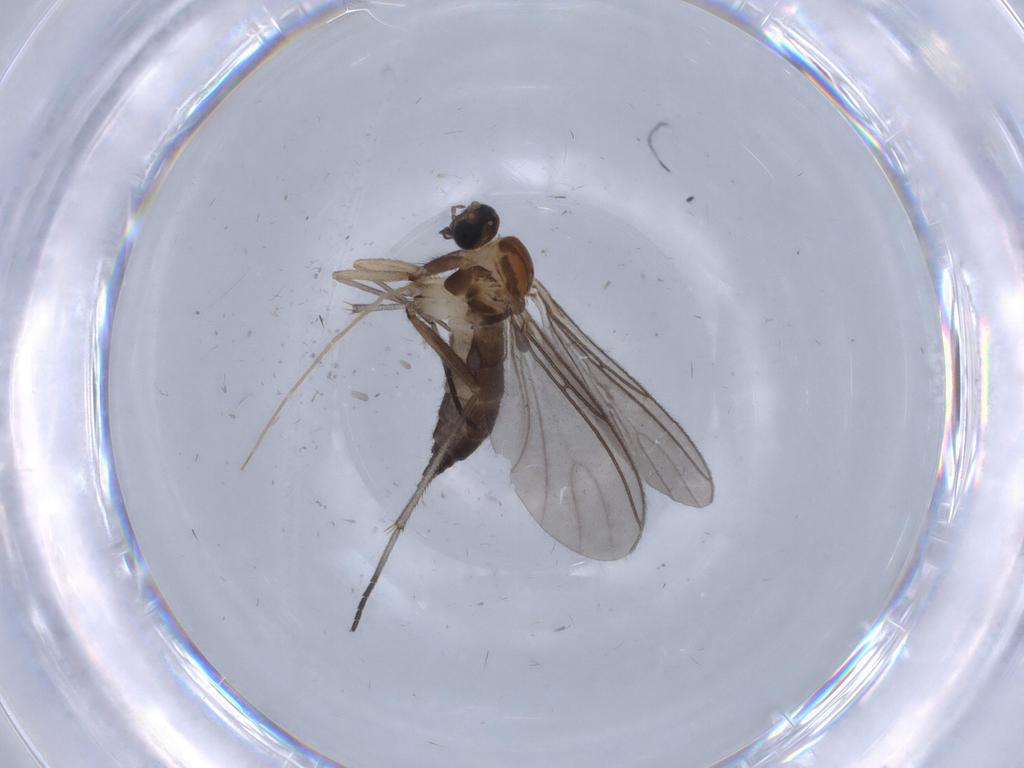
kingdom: Animalia
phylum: Arthropoda
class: Insecta
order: Diptera
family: Sciaridae
